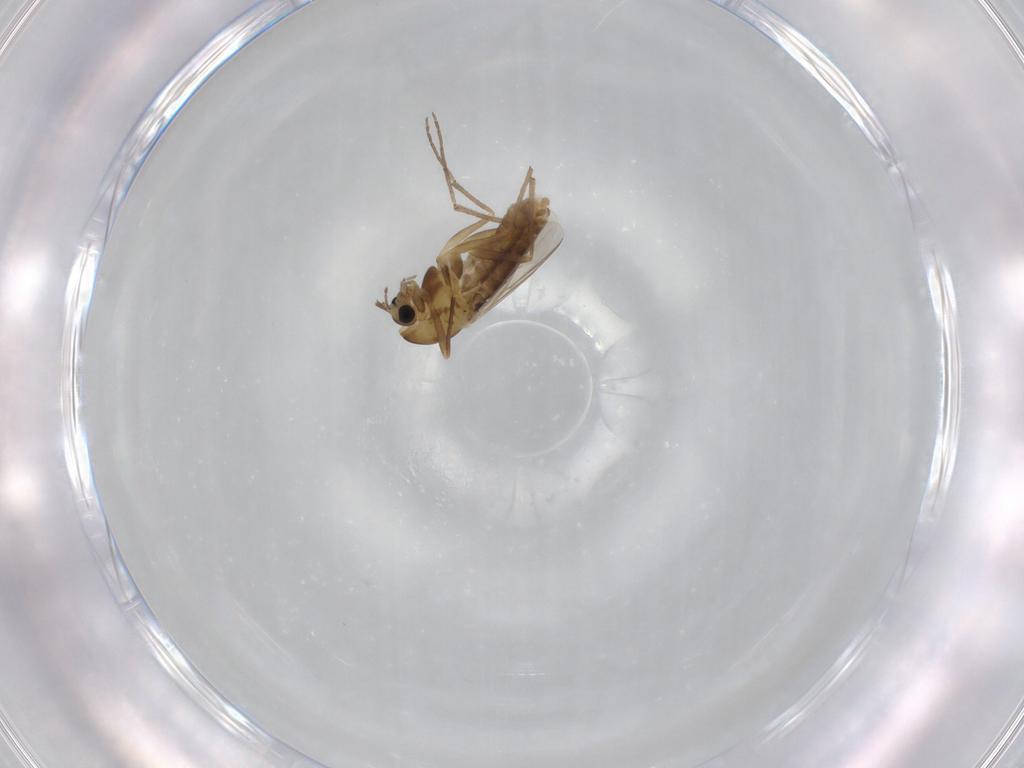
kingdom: Animalia
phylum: Arthropoda
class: Insecta
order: Diptera
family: Chironomidae
